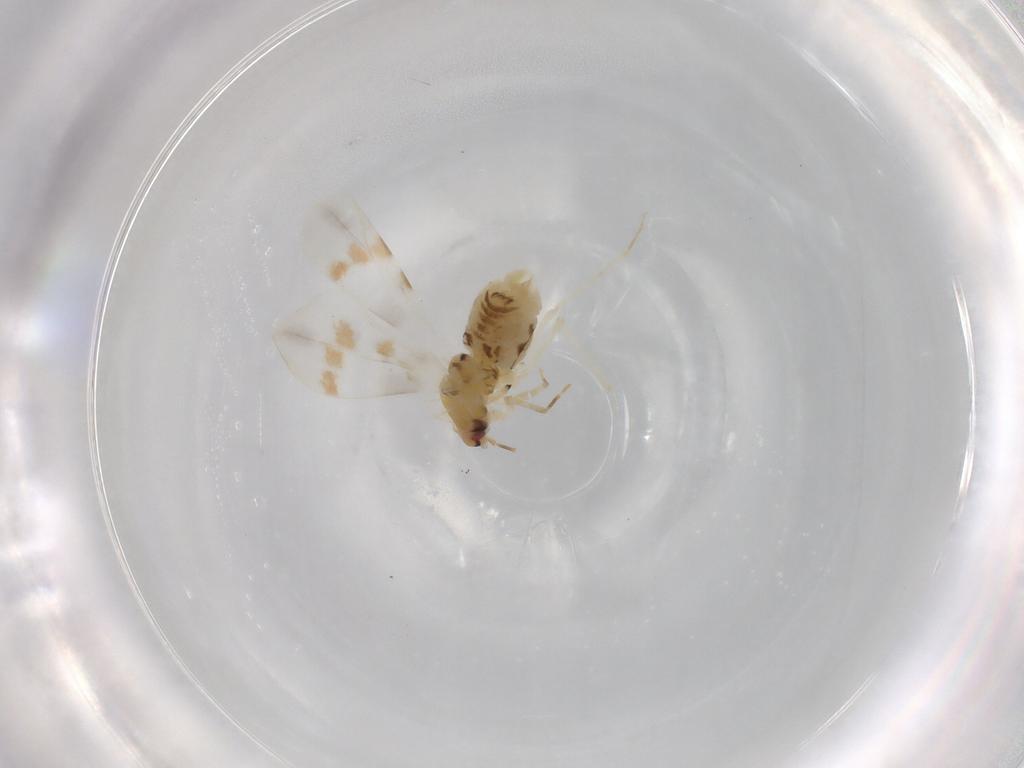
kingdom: Animalia
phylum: Arthropoda
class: Insecta
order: Hemiptera
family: Aleyrodidae
